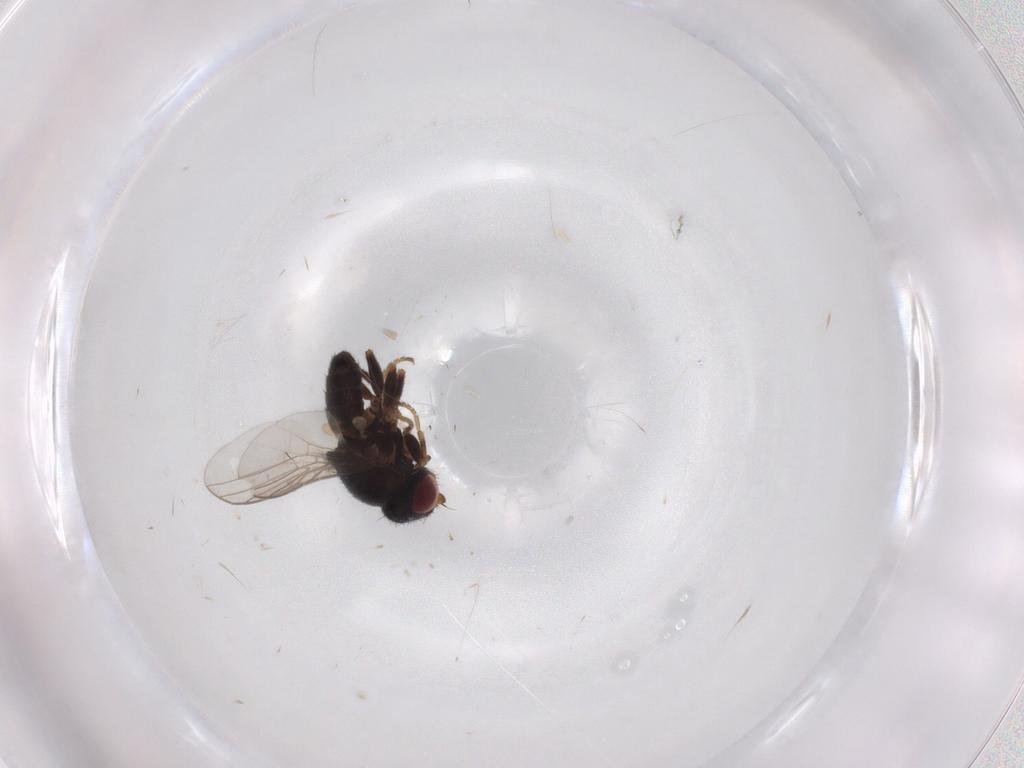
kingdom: Animalia
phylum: Arthropoda
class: Insecta
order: Diptera
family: Chloropidae
